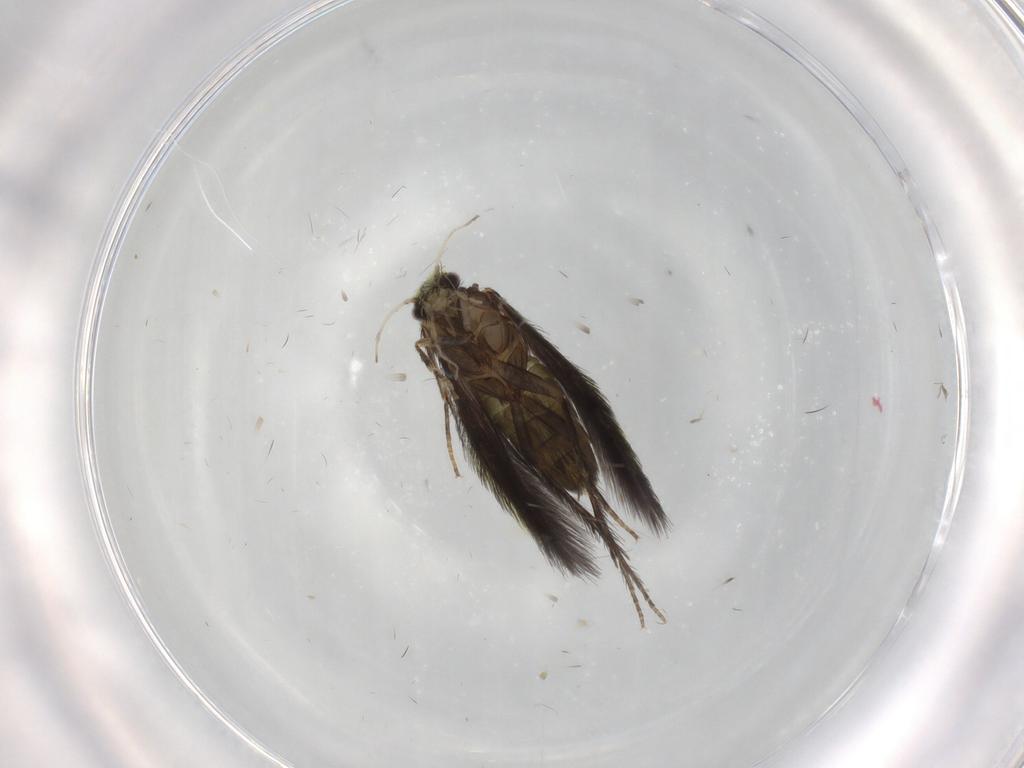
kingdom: Animalia
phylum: Arthropoda
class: Insecta
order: Trichoptera
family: Hydroptilidae
